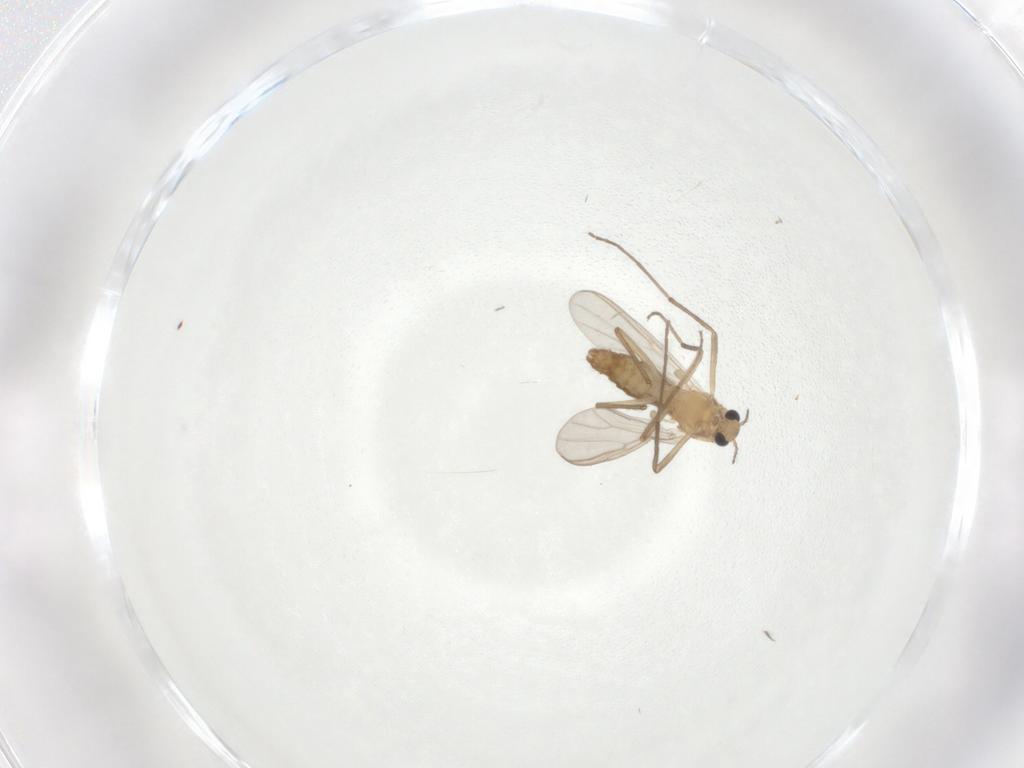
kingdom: Animalia
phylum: Arthropoda
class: Insecta
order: Diptera
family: Chironomidae
